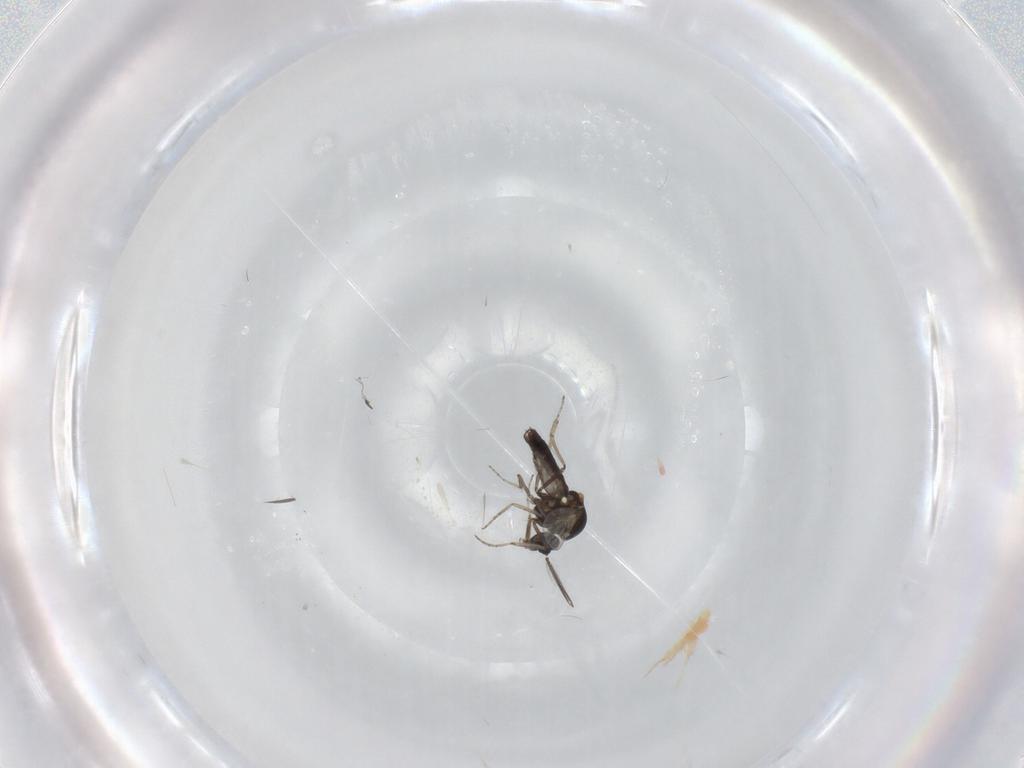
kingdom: Animalia
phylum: Arthropoda
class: Insecta
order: Diptera
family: Ceratopogonidae
